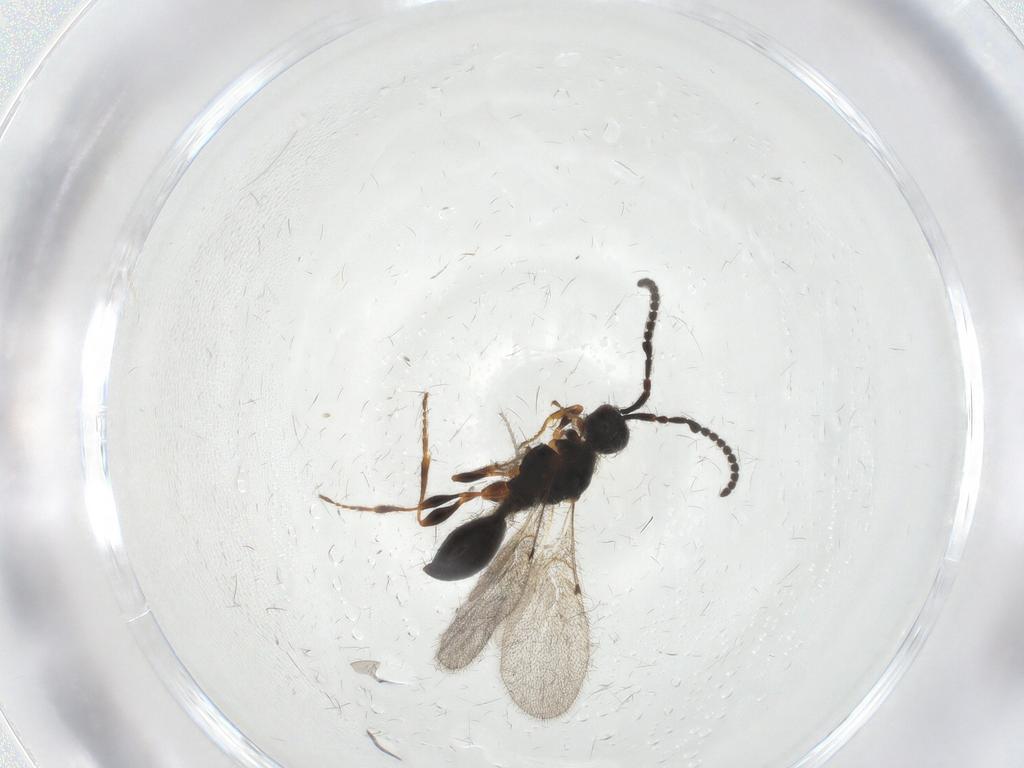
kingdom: Animalia
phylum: Arthropoda
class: Insecta
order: Hymenoptera
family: Diapriidae
